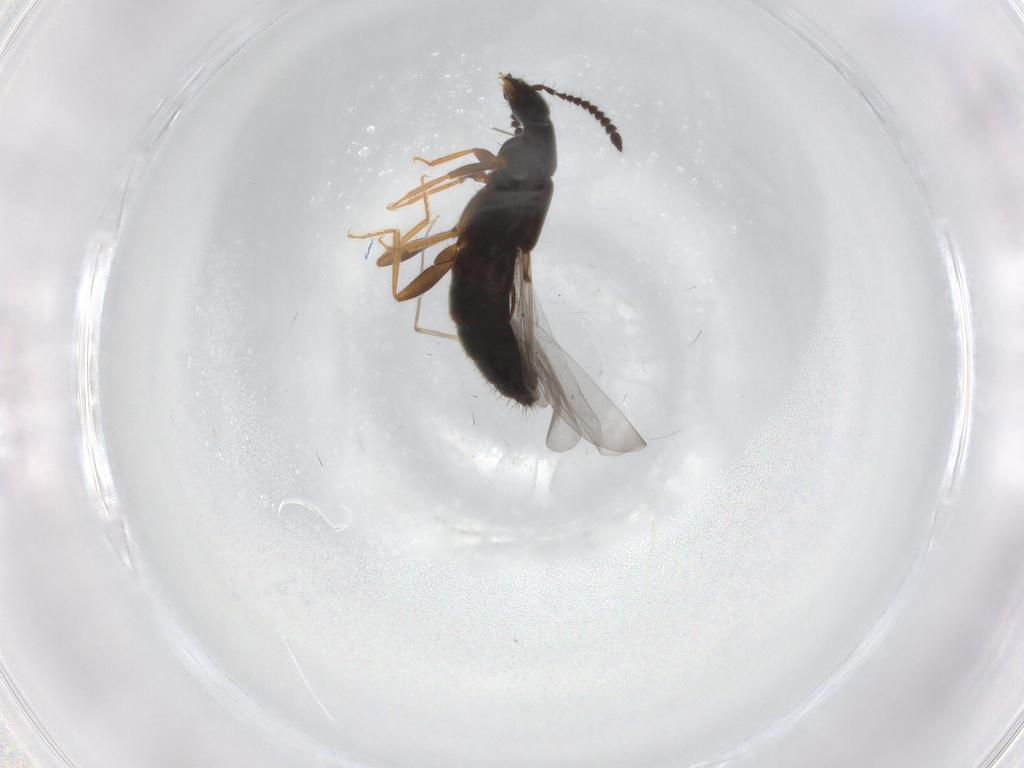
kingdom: Animalia
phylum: Arthropoda
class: Insecta
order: Coleoptera
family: Staphylinidae
